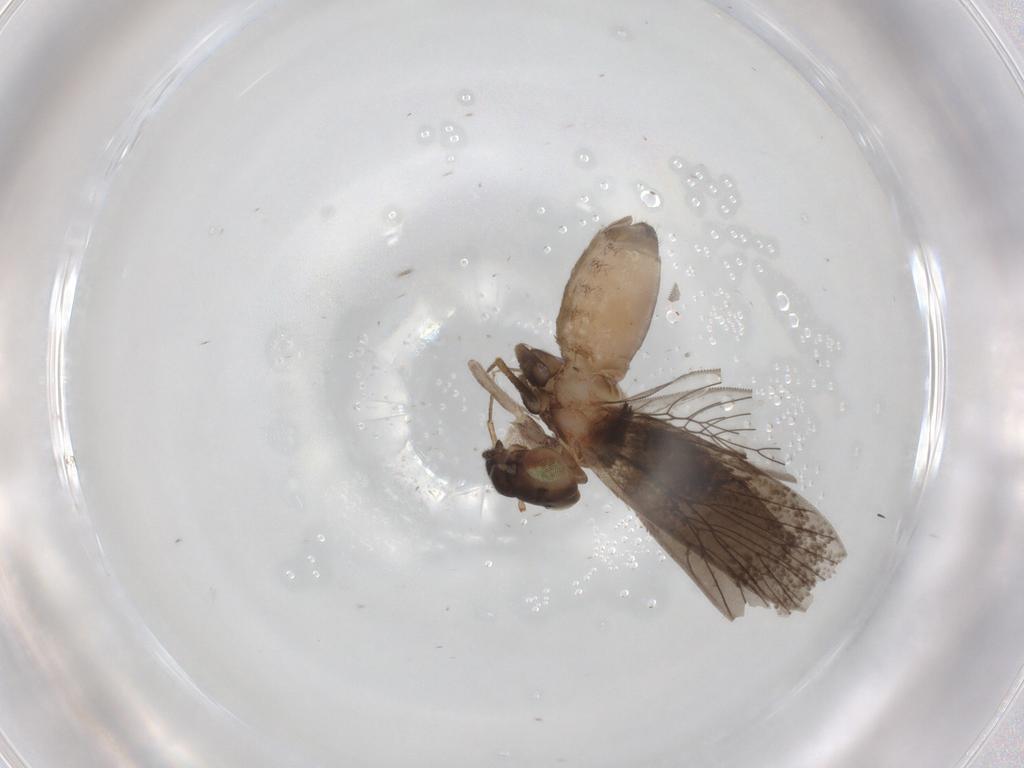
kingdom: Animalia
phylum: Arthropoda
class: Insecta
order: Psocodea
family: Lepidopsocidae
